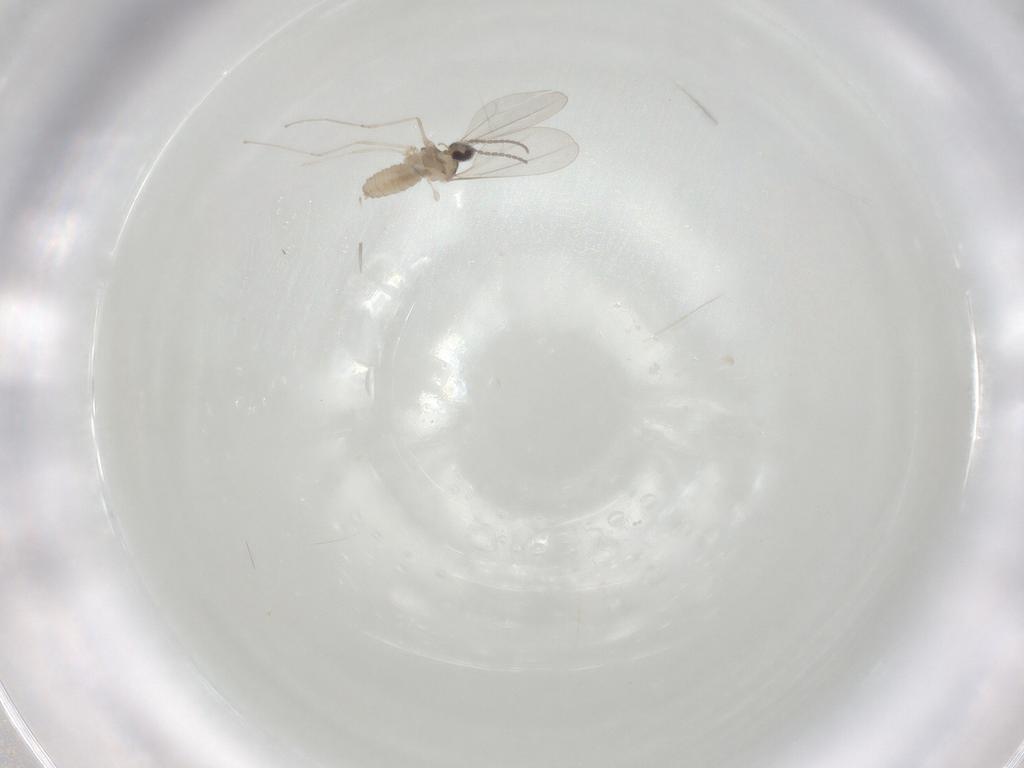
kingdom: Animalia
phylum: Arthropoda
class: Insecta
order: Diptera
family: Cecidomyiidae
